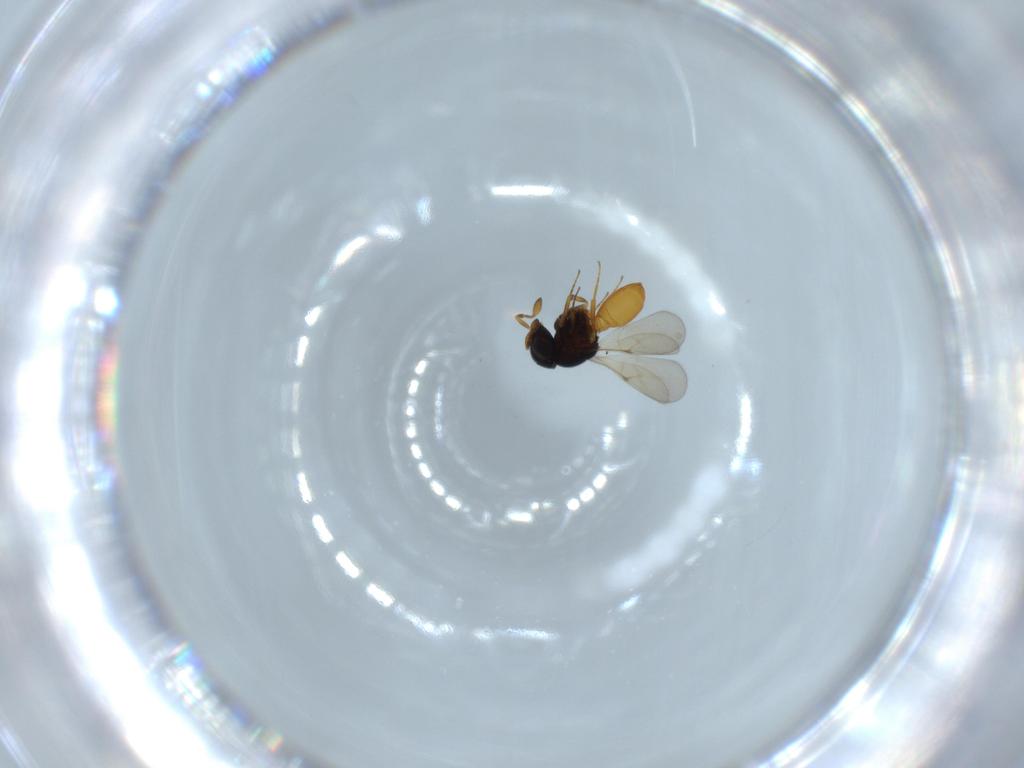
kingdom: Animalia
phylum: Arthropoda
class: Insecta
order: Hymenoptera
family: Scelionidae
